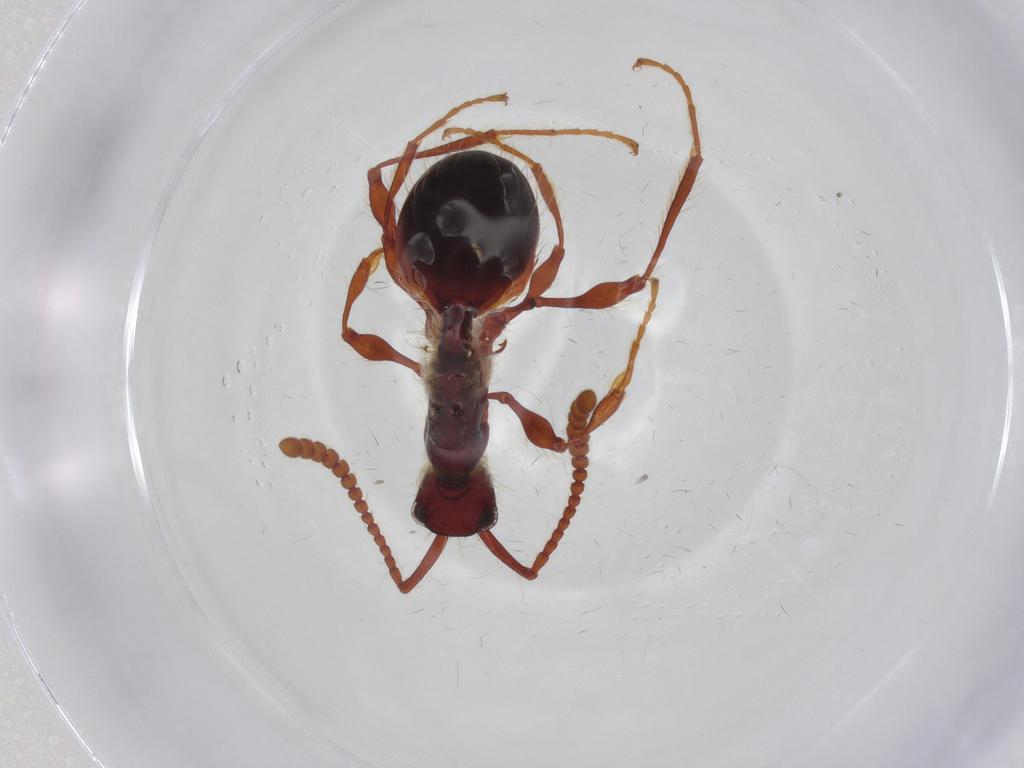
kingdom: Animalia
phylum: Arthropoda
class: Insecta
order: Hymenoptera
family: Diapriidae
